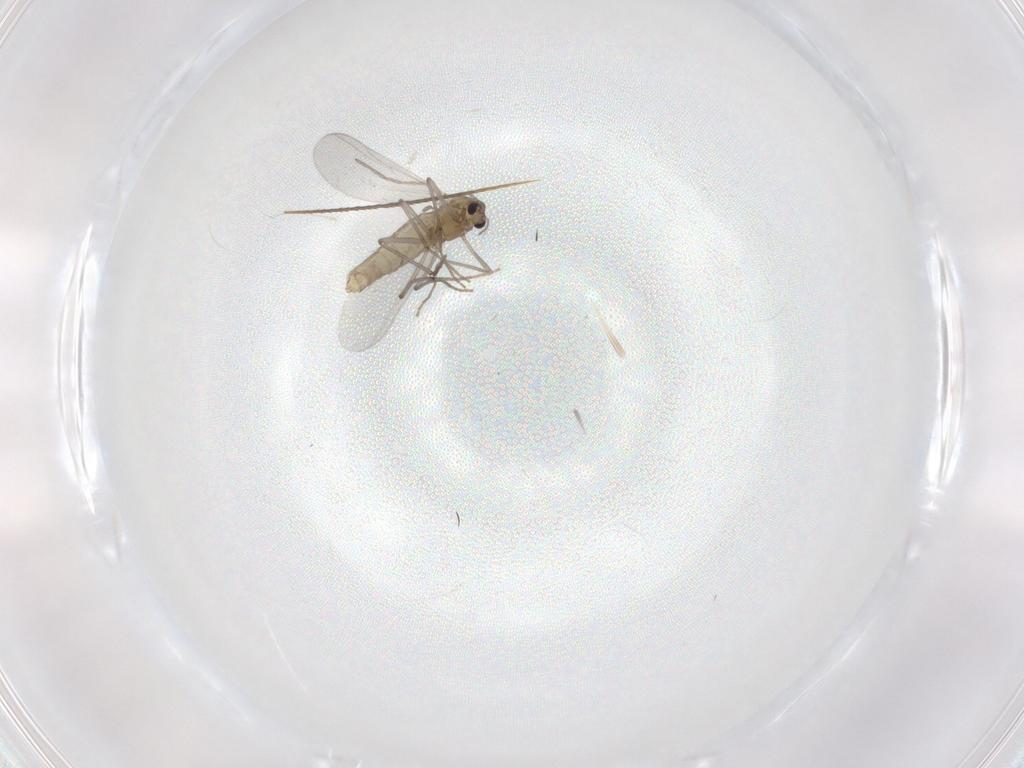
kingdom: Animalia
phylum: Arthropoda
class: Insecta
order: Diptera
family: Chironomidae
